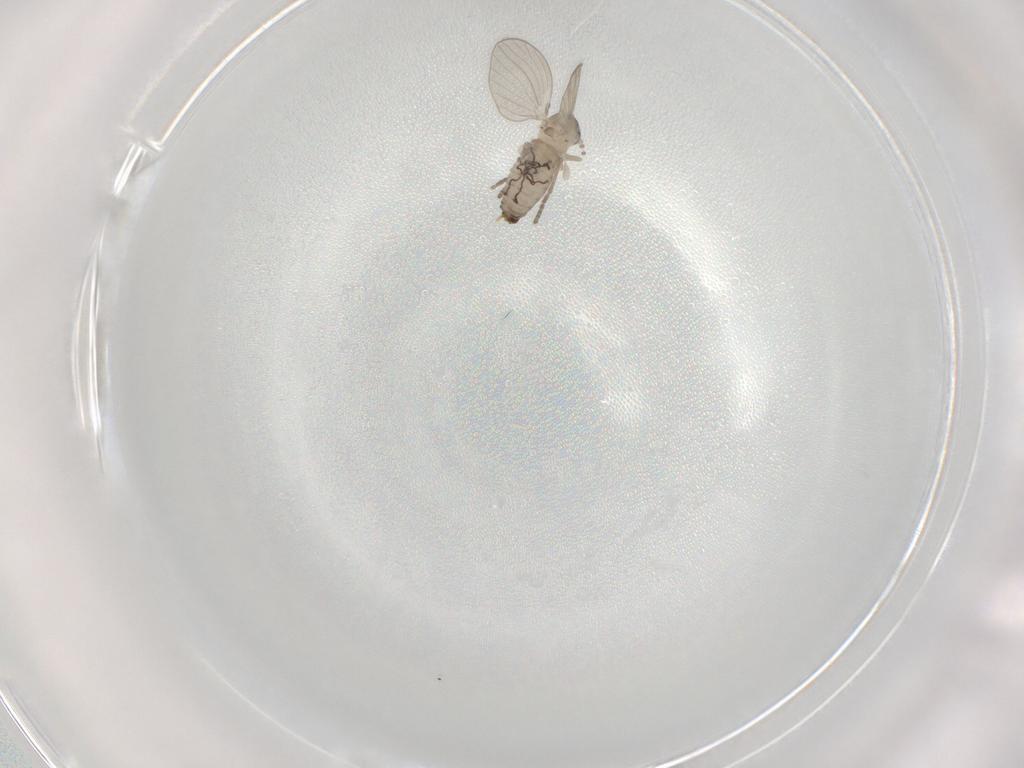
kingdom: Animalia
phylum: Arthropoda
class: Insecta
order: Diptera
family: Psychodidae
